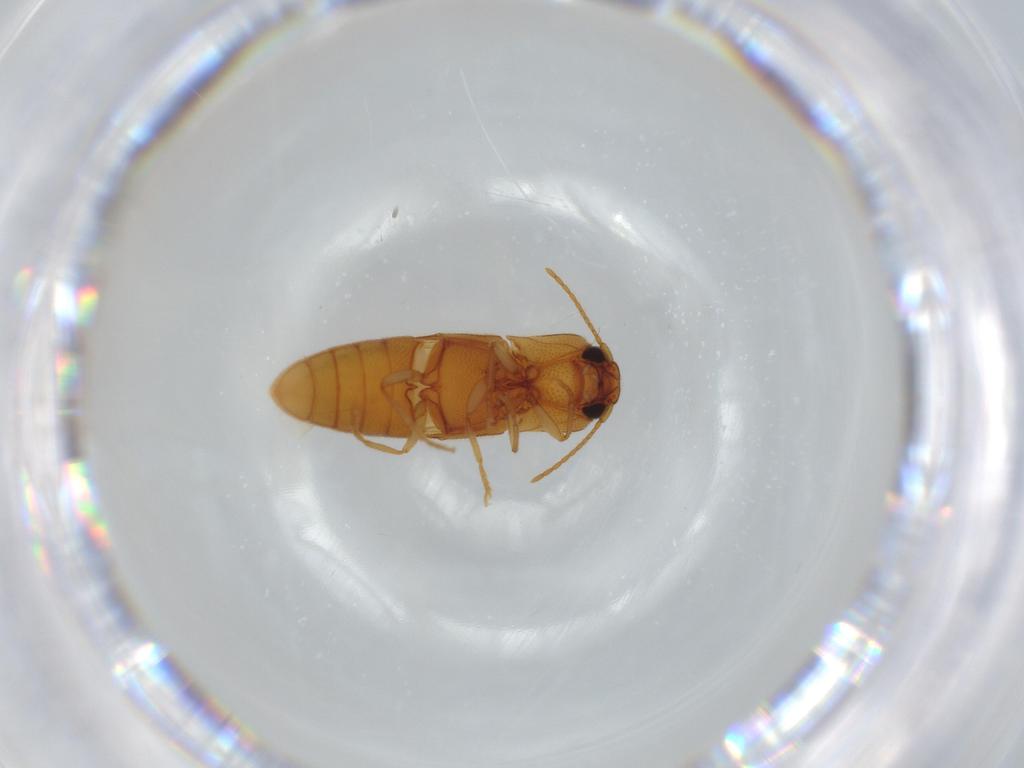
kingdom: Animalia
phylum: Arthropoda
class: Insecta
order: Coleoptera
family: Elateridae
